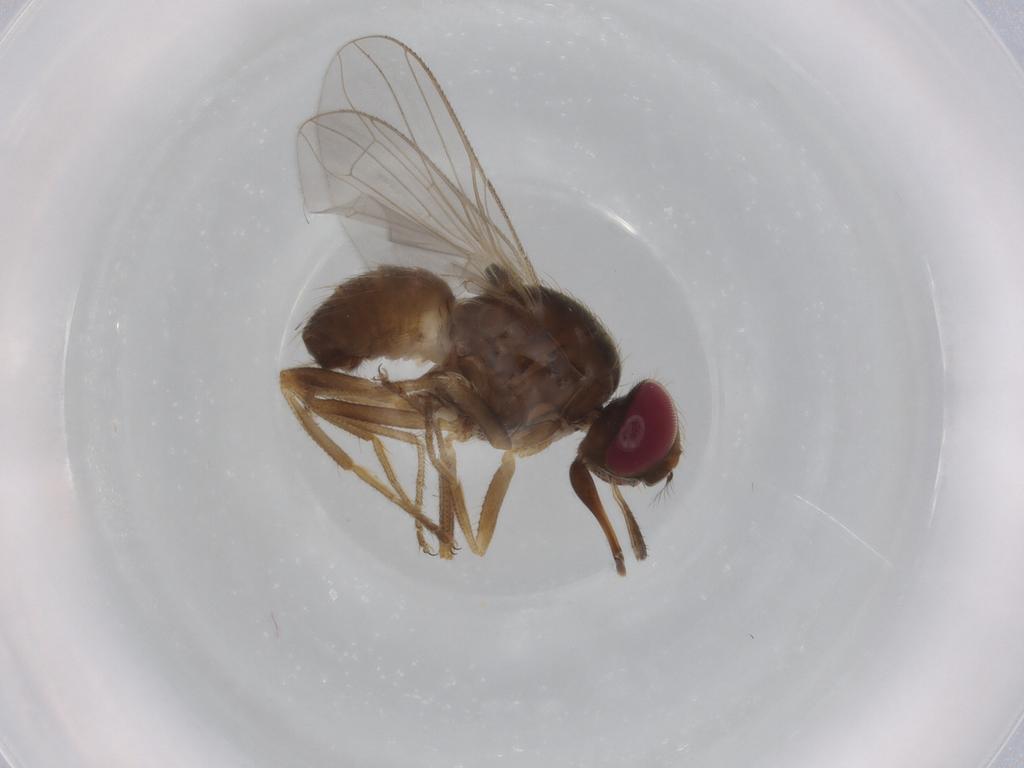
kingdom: Animalia
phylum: Arthropoda
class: Insecta
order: Diptera
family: Muscidae
